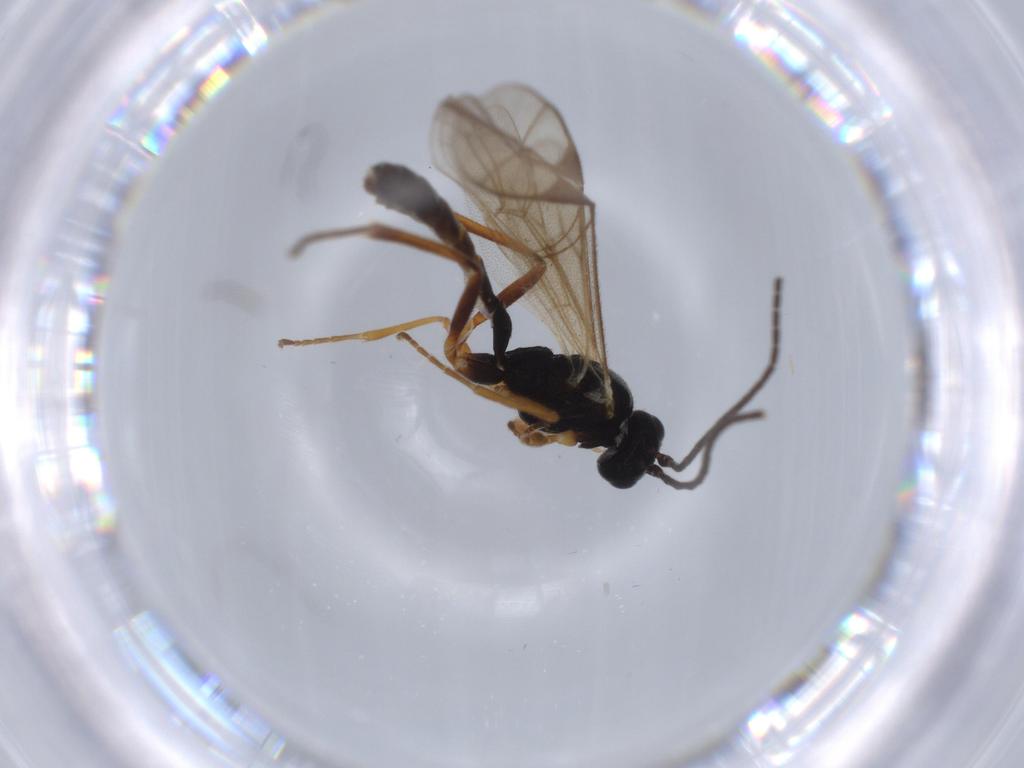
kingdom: Animalia
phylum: Arthropoda
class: Insecta
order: Hymenoptera
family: Ichneumonidae
